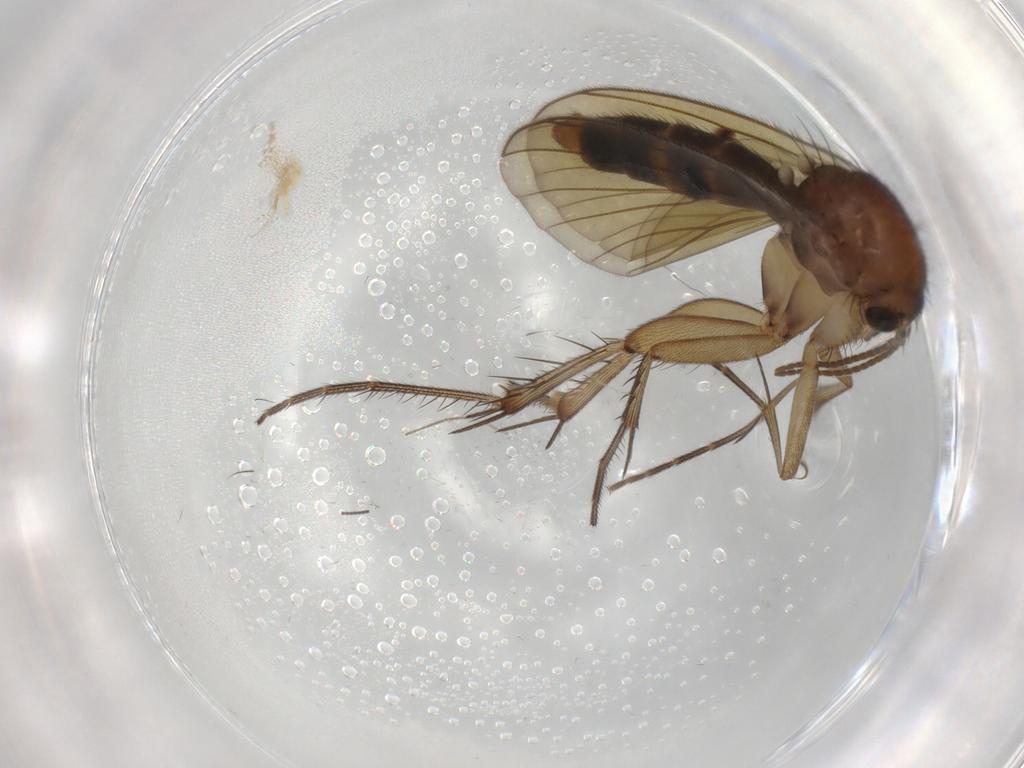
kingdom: Animalia
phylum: Arthropoda
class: Insecta
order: Diptera
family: Mycetophilidae
